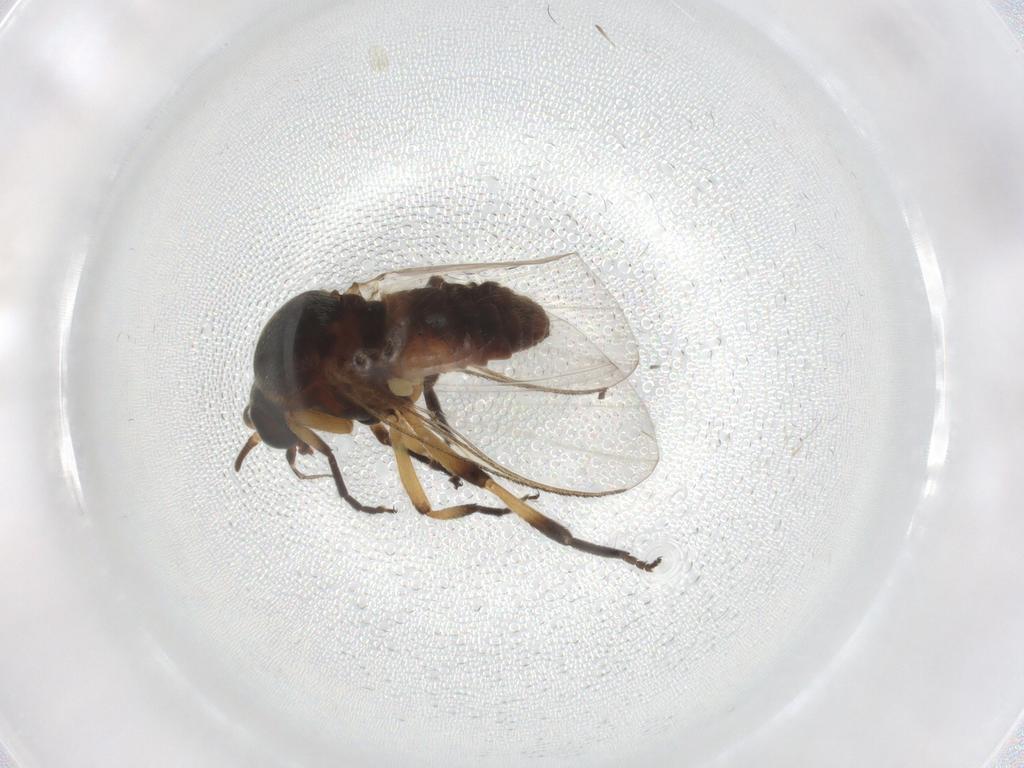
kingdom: Animalia
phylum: Arthropoda
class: Insecta
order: Diptera
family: Cecidomyiidae
